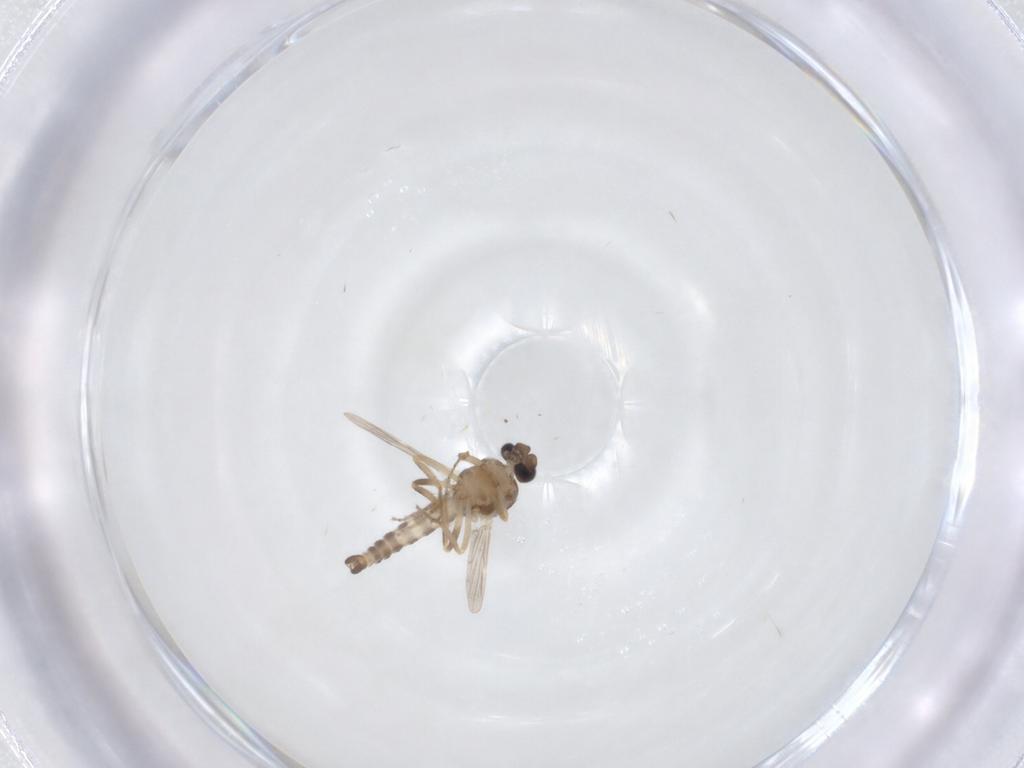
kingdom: Animalia
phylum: Arthropoda
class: Insecta
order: Diptera
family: Ceratopogonidae
